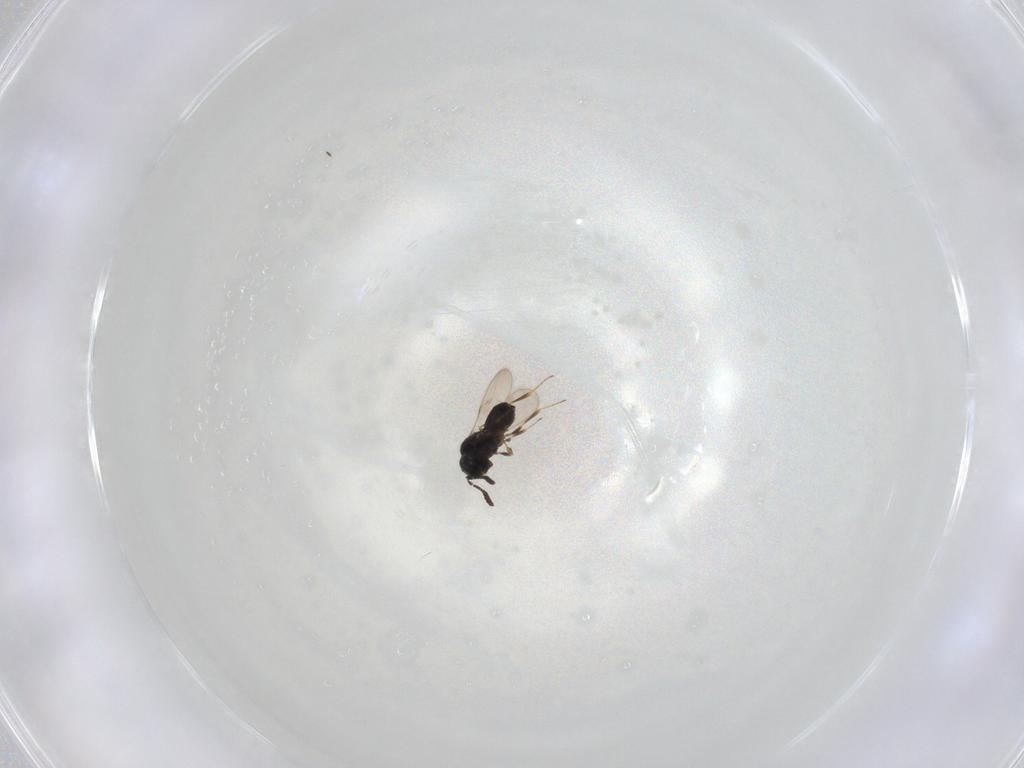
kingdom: Animalia
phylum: Arthropoda
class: Insecta
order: Hymenoptera
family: Scelionidae
